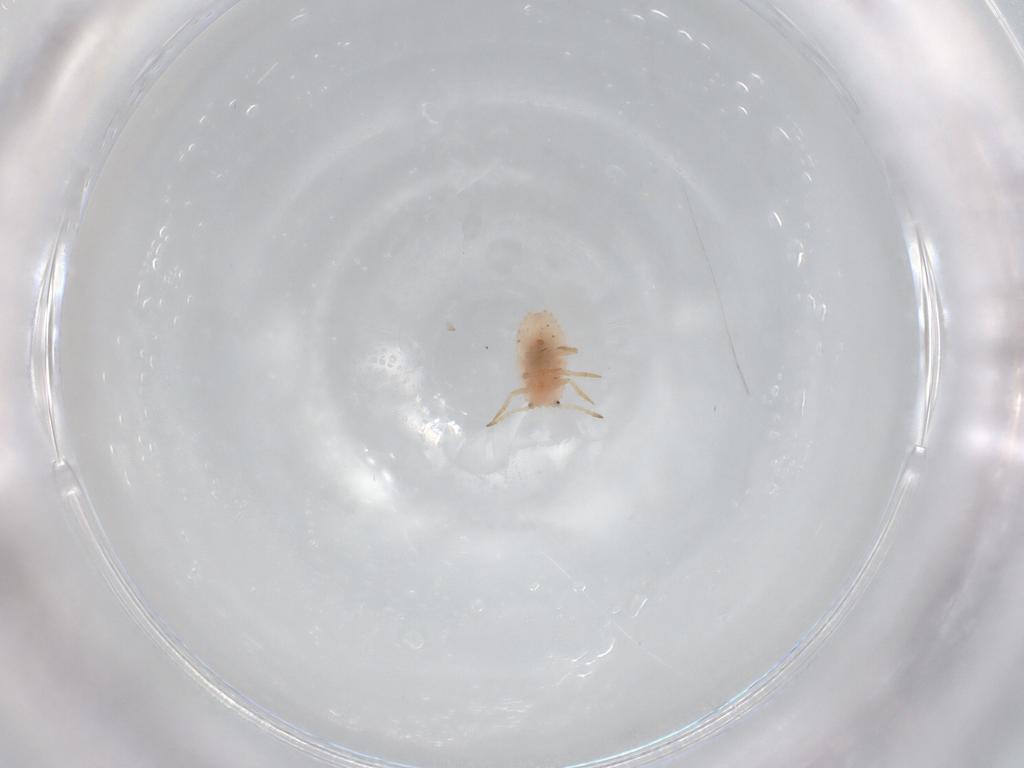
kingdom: Animalia
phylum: Arthropoda
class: Insecta
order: Hemiptera
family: Coccoidea_incertae_sedis
